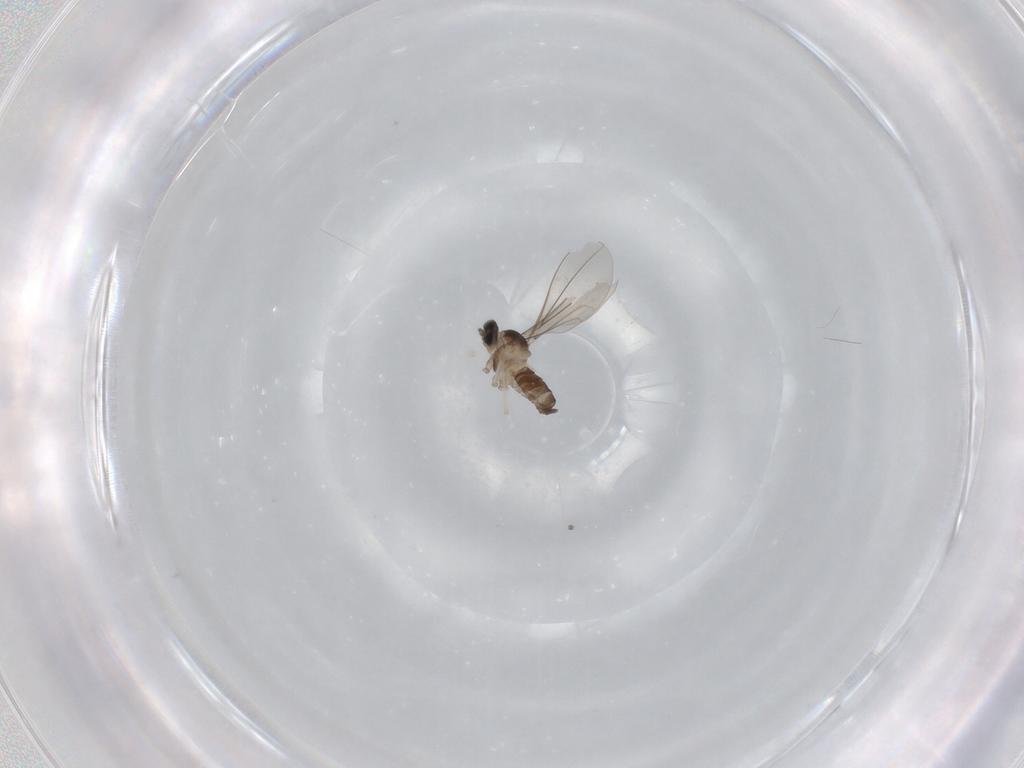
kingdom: Animalia
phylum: Arthropoda
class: Insecta
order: Diptera
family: Cecidomyiidae
